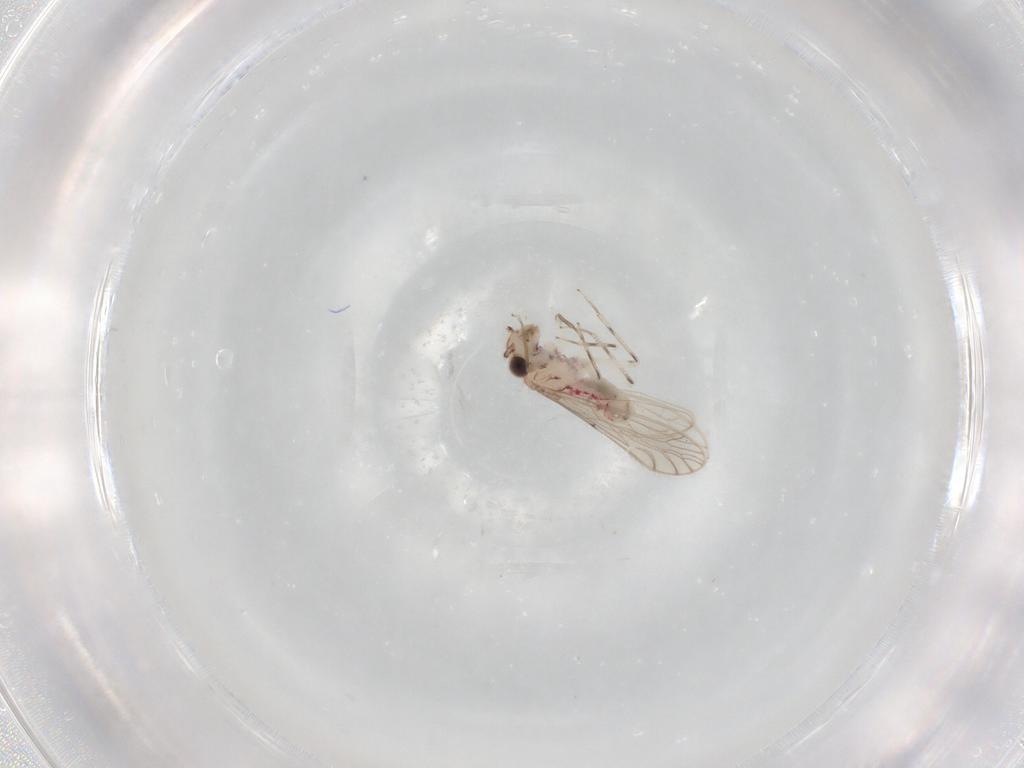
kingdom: Animalia
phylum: Arthropoda
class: Insecta
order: Psocodea
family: Caeciliusidae
